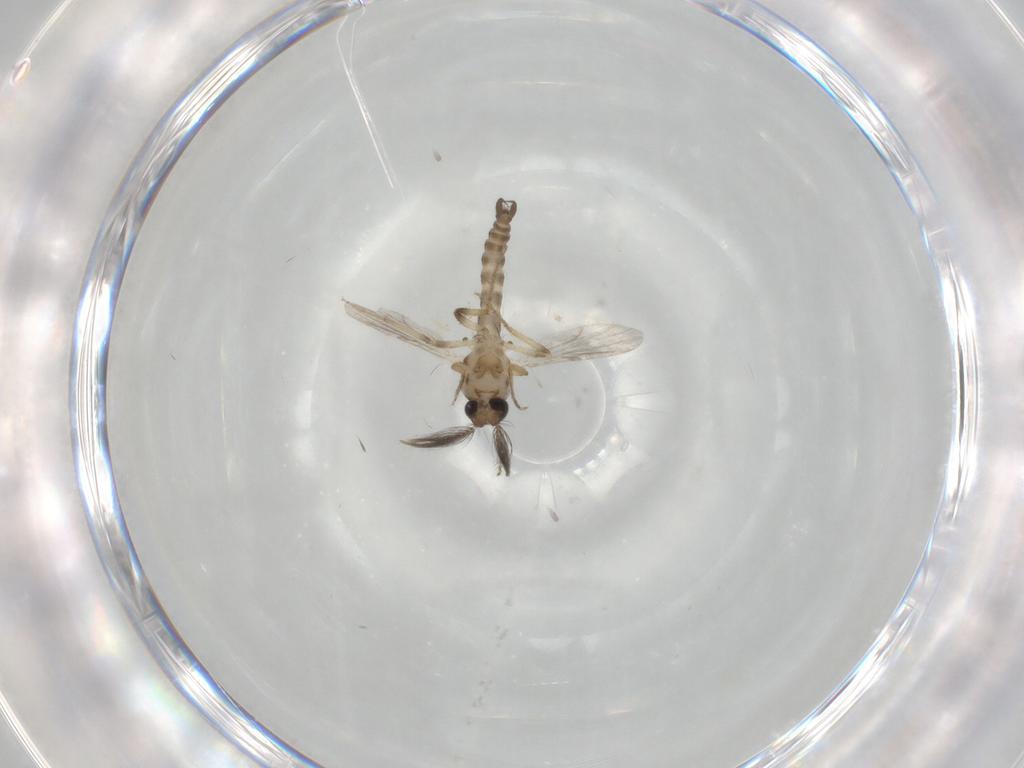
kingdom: Animalia
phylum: Arthropoda
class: Insecta
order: Diptera
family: Ceratopogonidae
